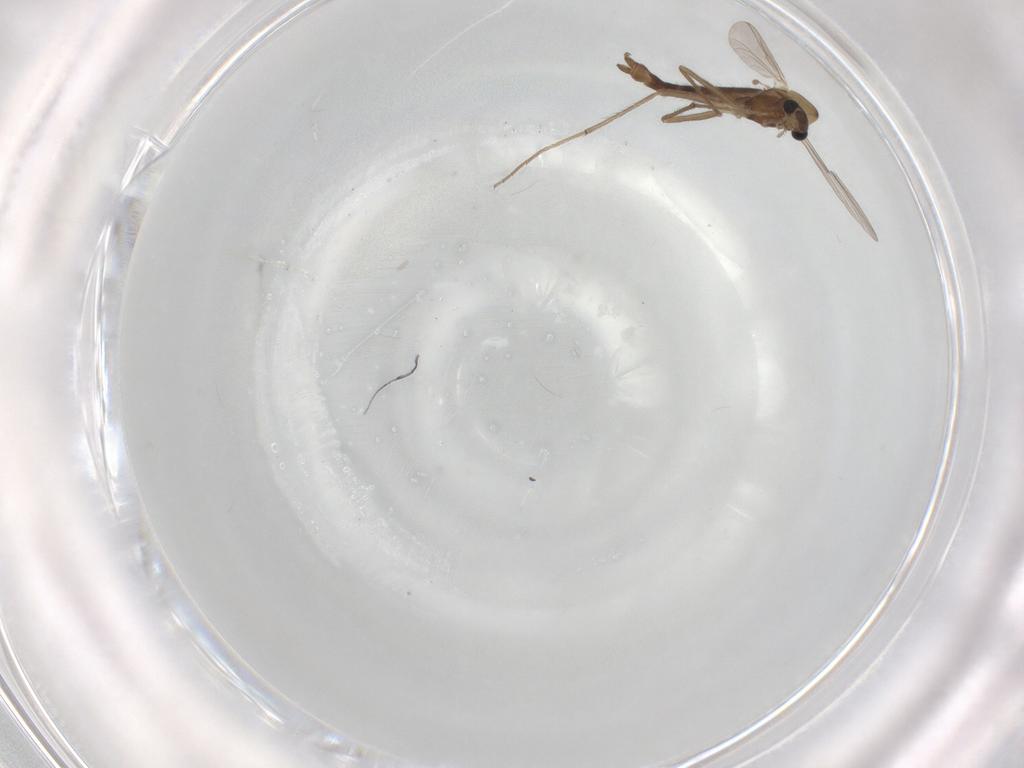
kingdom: Animalia
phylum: Arthropoda
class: Insecta
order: Diptera
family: Chironomidae
